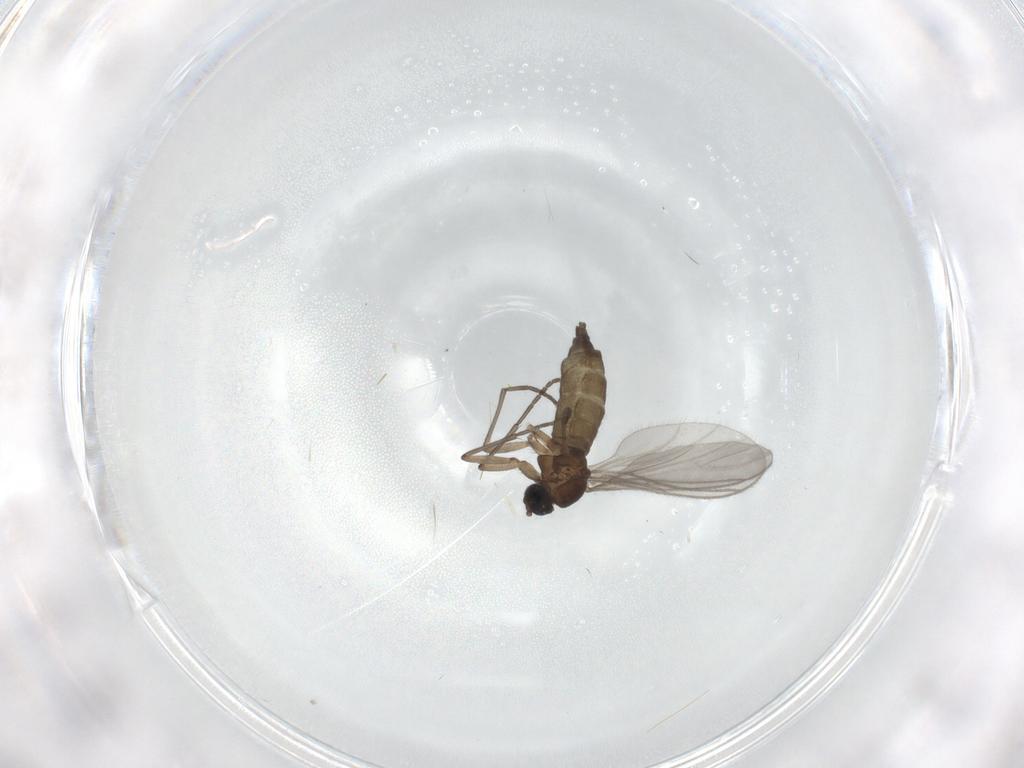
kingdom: Animalia
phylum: Arthropoda
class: Insecta
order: Diptera
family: Sciaridae
